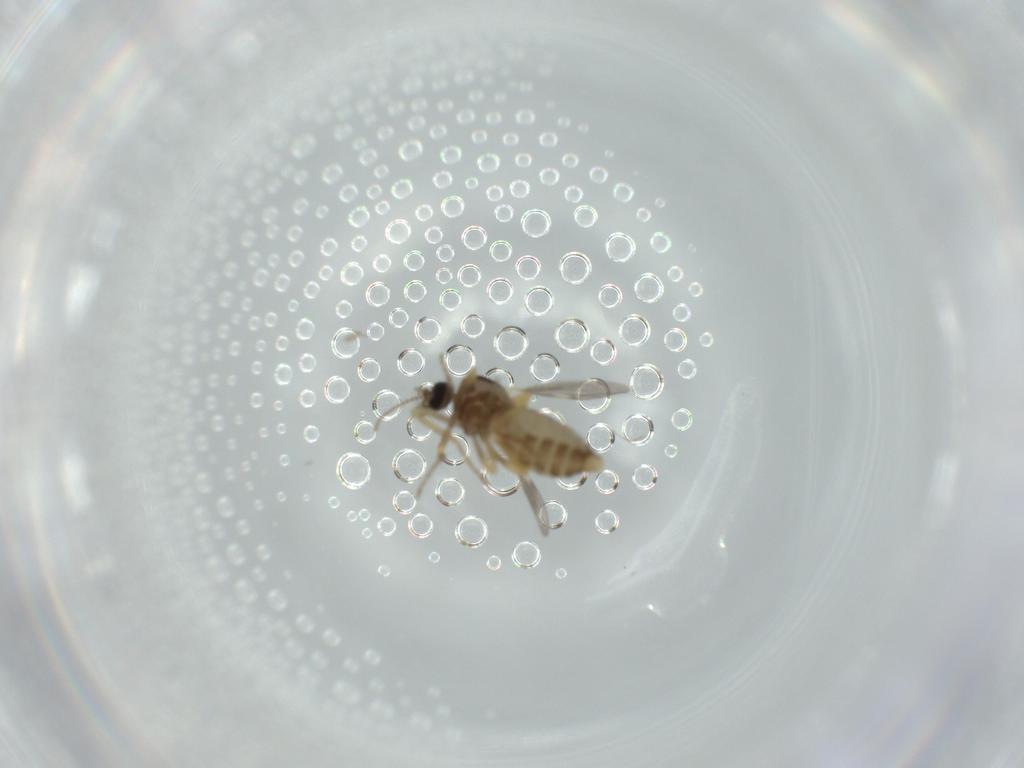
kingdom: Animalia
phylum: Arthropoda
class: Insecta
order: Diptera
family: Ceratopogonidae
